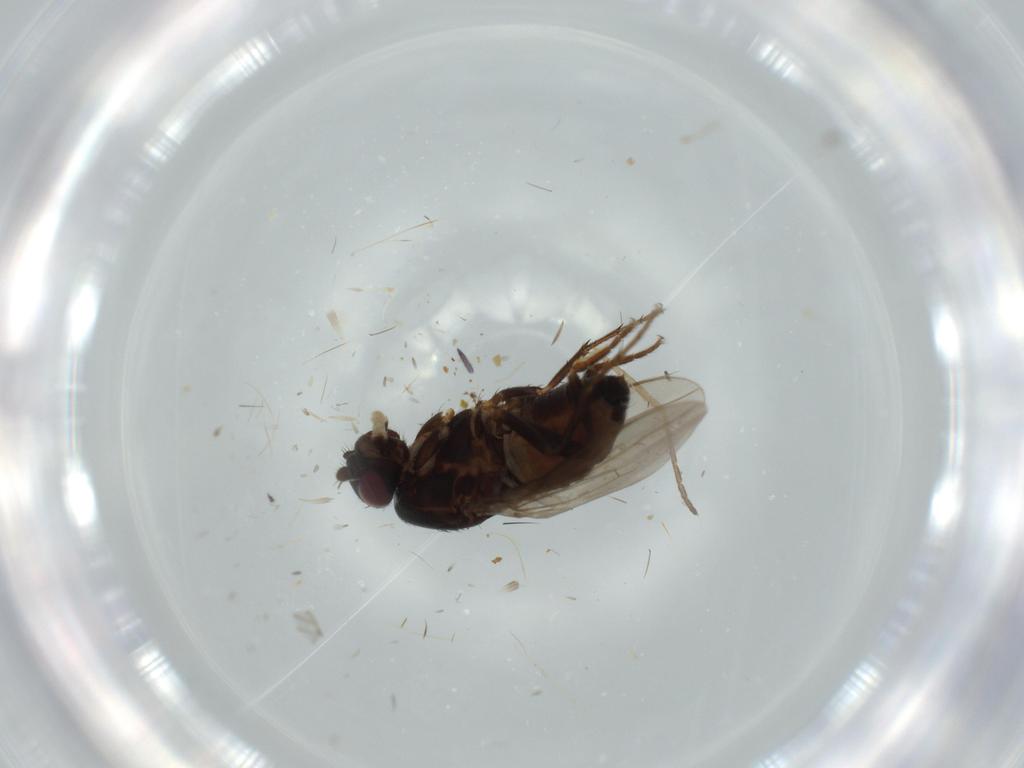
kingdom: Animalia
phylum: Arthropoda
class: Insecta
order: Diptera
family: Sphaeroceridae
